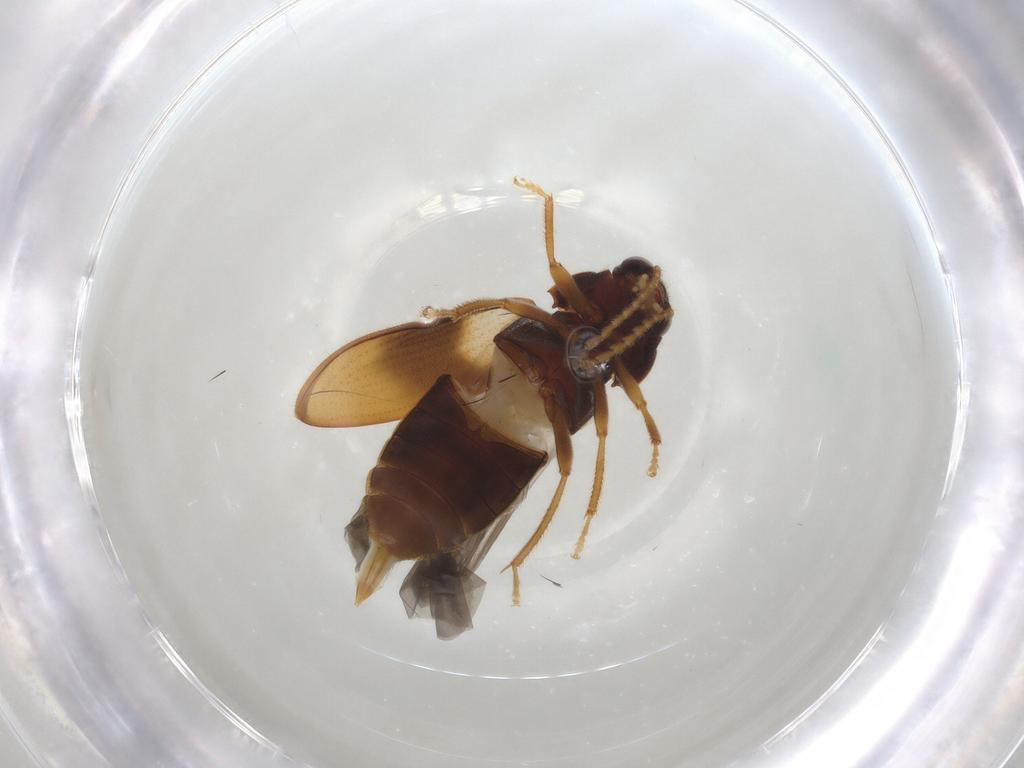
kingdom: Animalia
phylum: Arthropoda
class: Insecta
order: Coleoptera
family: Ptilodactylidae
